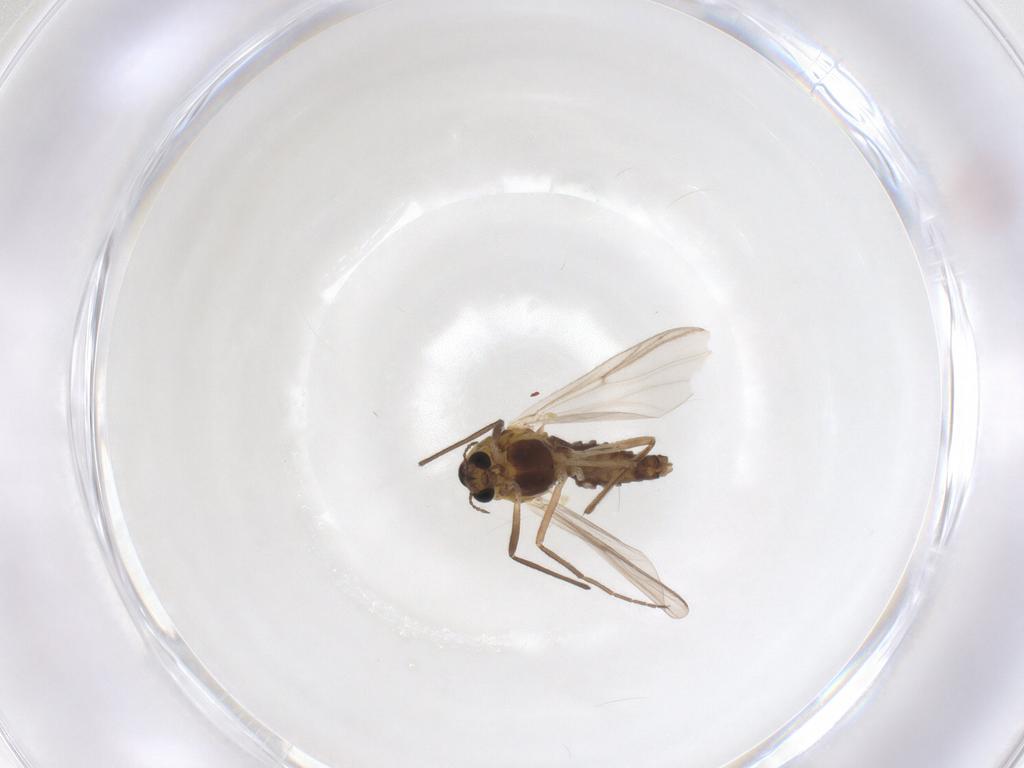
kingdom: Animalia
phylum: Arthropoda
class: Insecta
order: Diptera
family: Chironomidae
